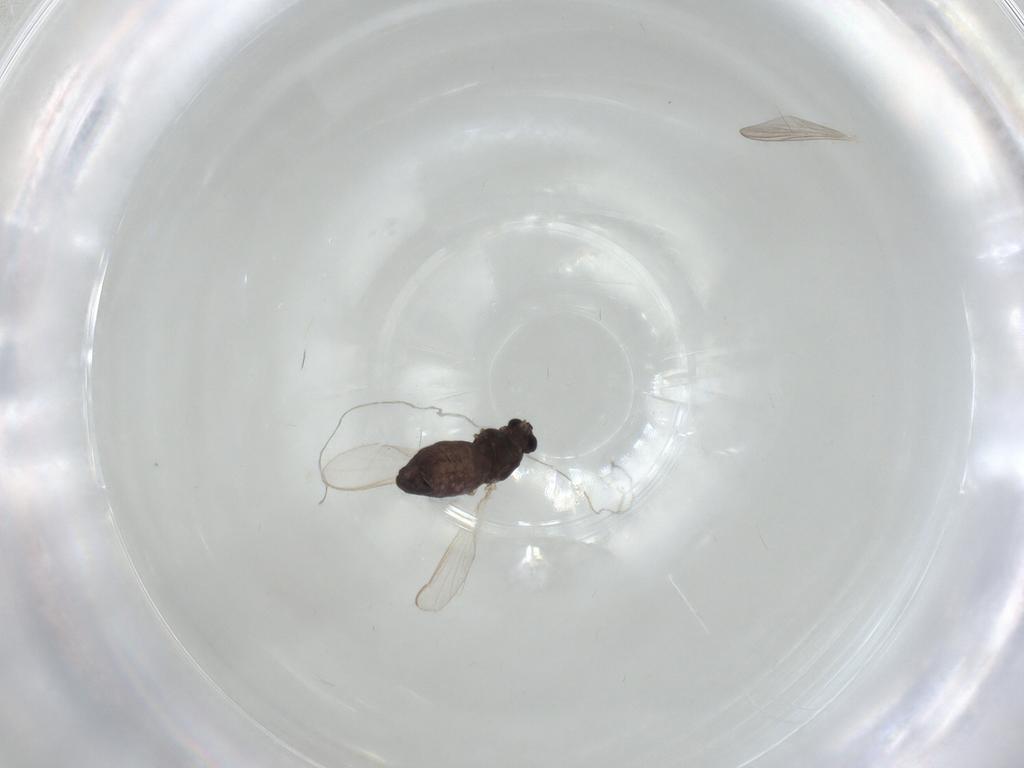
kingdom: Animalia
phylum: Arthropoda
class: Insecta
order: Diptera
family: Chironomidae
